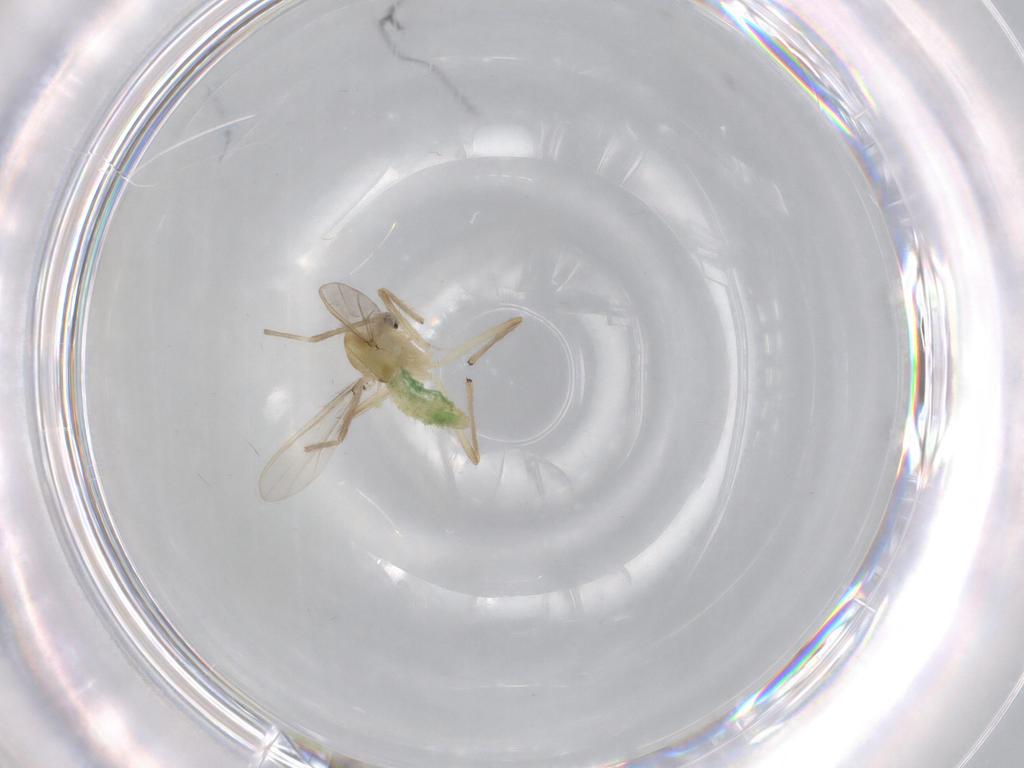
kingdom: Animalia
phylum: Arthropoda
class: Insecta
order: Diptera
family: Chironomidae
